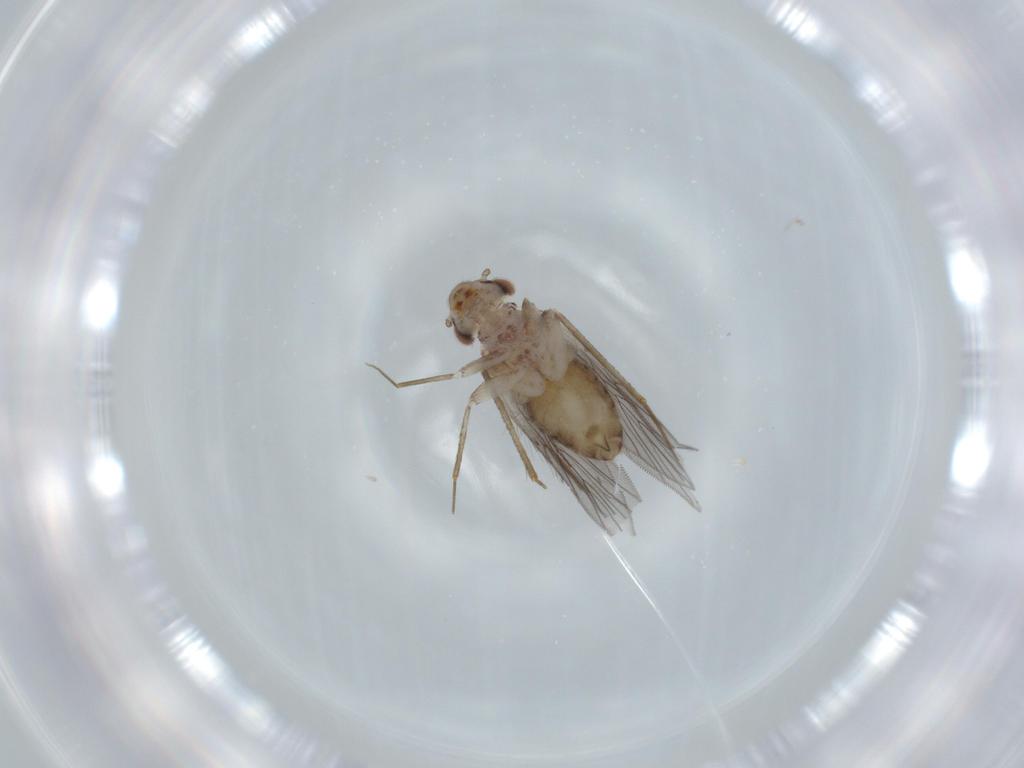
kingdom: Animalia
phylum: Arthropoda
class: Insecta
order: Psocodea
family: Lepidopsocidae
